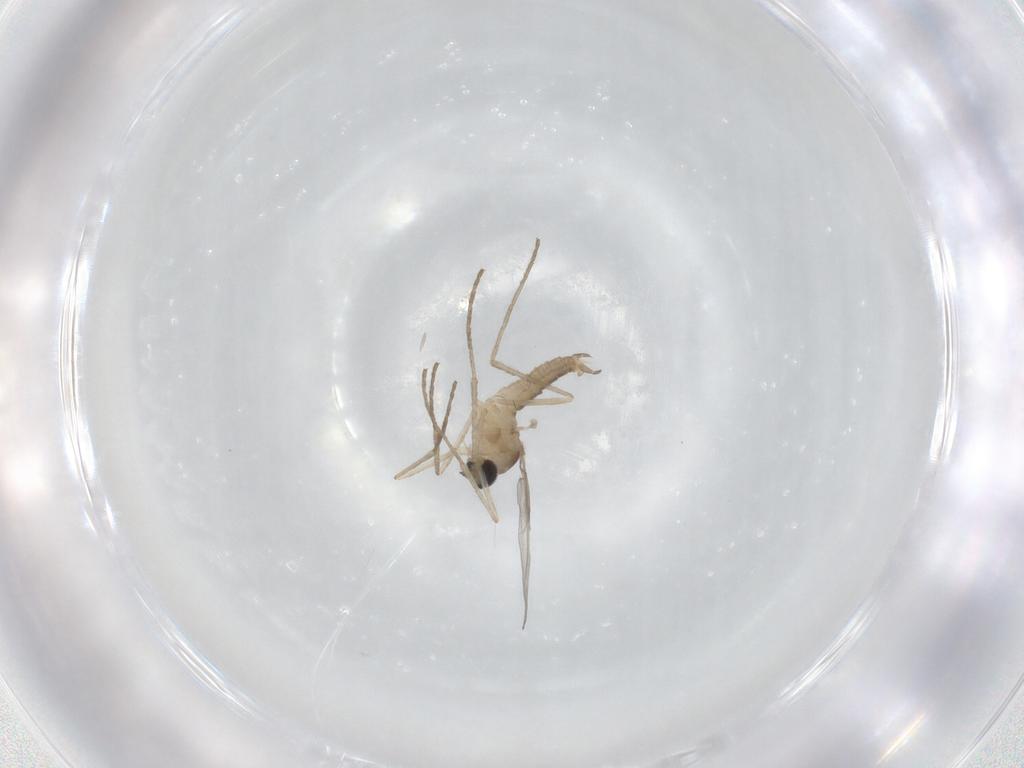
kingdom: Animalia
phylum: Arthropoda
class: Insecta
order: Diptera
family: Cecidomyiidae
